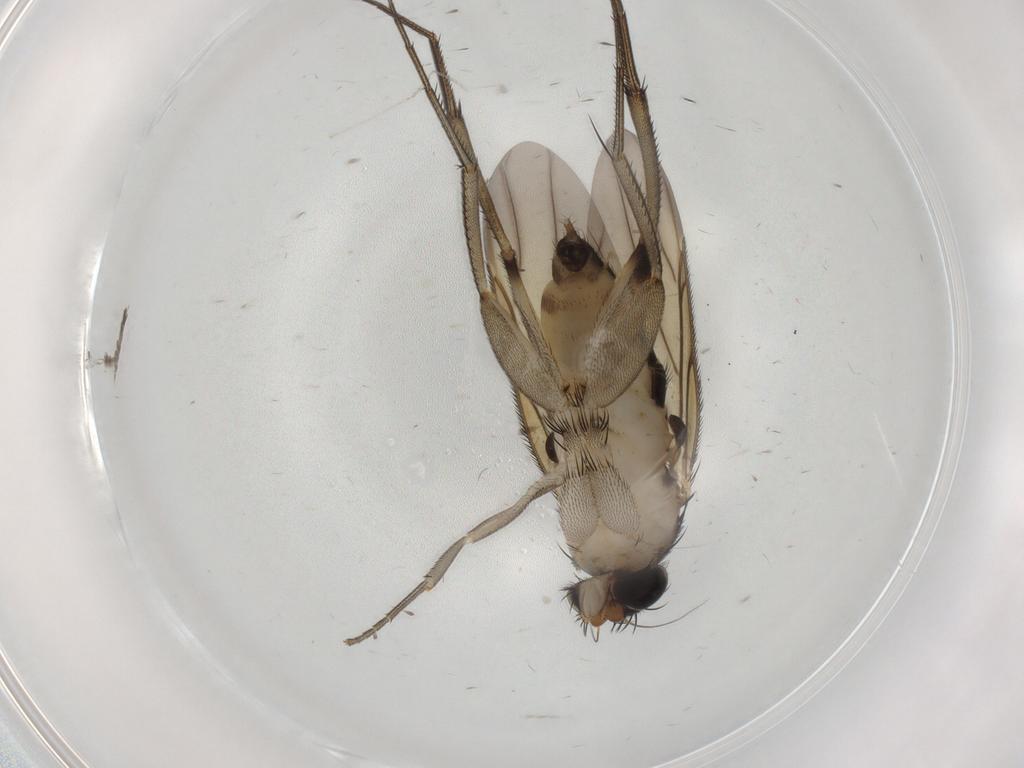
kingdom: Animalia
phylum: Arthropoda
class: Insecta
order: Diptera
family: Phoridae
